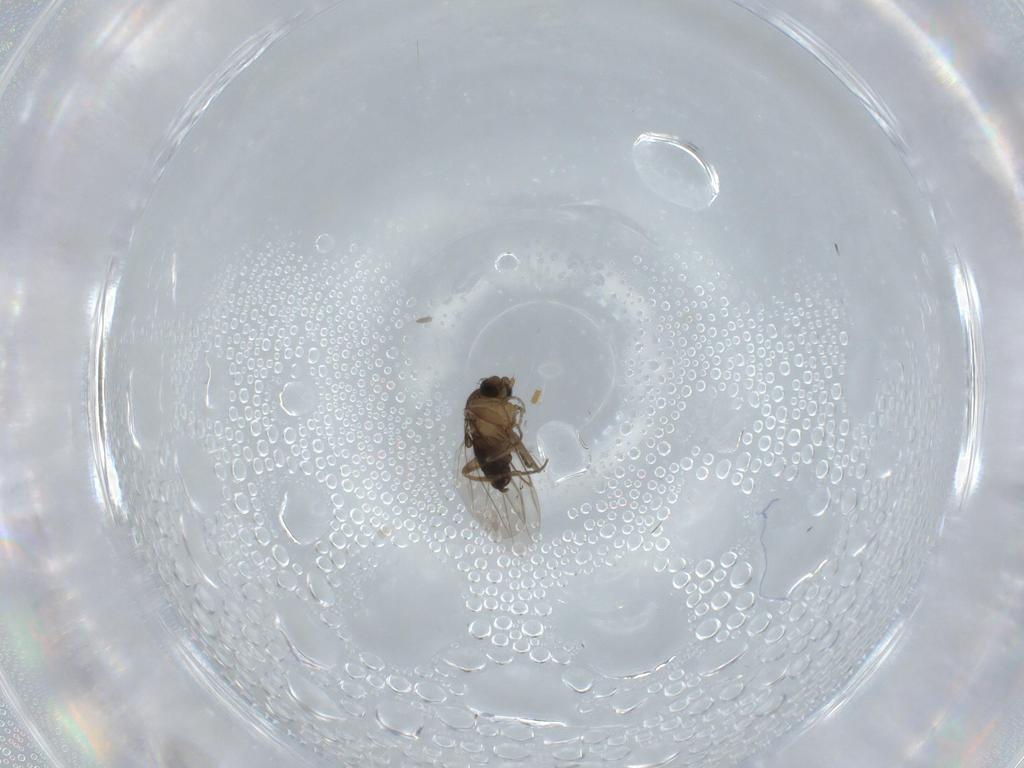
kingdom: Animalia
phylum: Arthropoda
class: Insecta
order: Diptera
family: Phoridae
